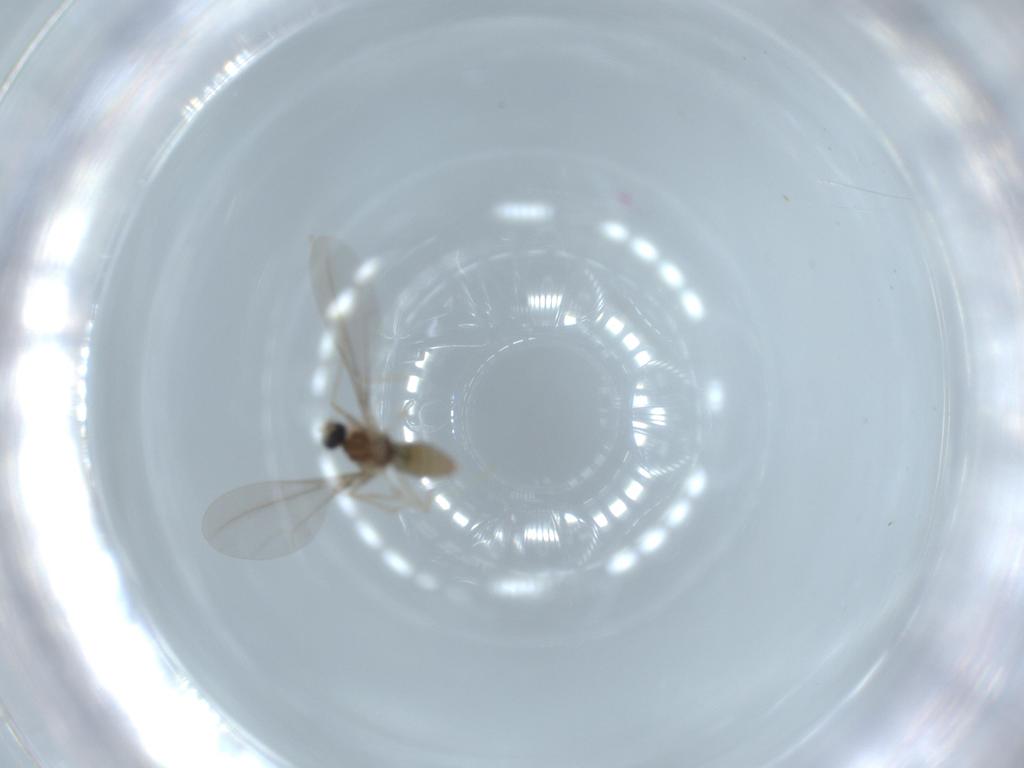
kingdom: Animalia
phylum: Arthropoda
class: Insecta
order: Diptera
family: Cecidomyiidae
